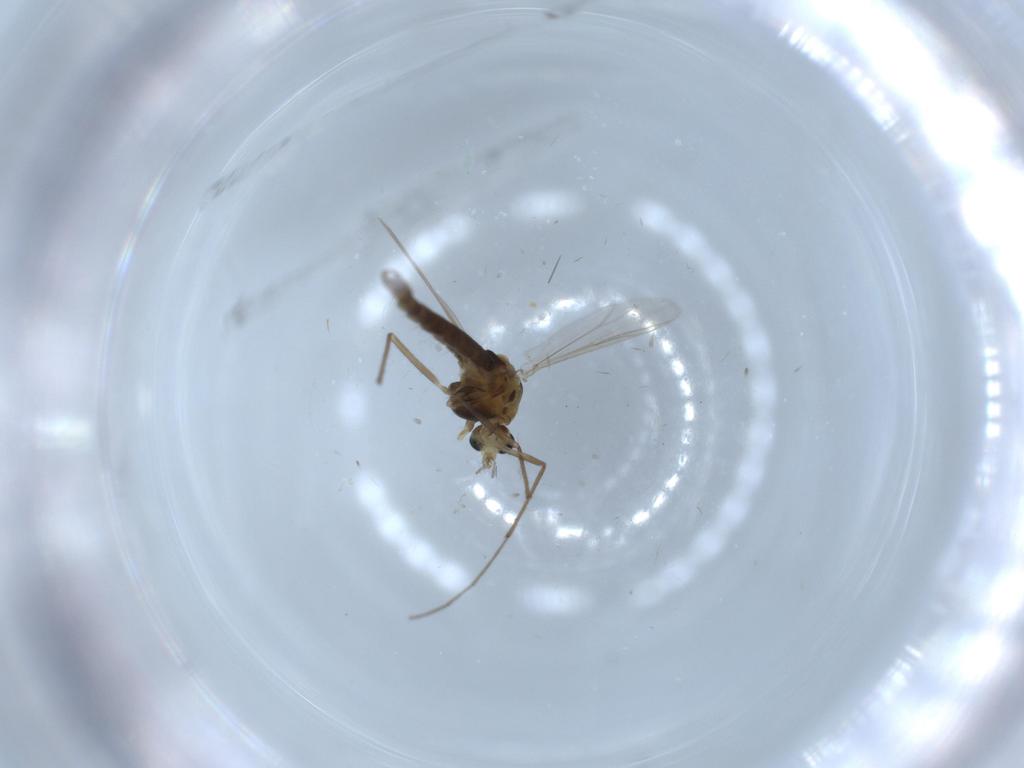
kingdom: Animalia
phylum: Arthropoda
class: Insecta
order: Diptera
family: Chironomidae
